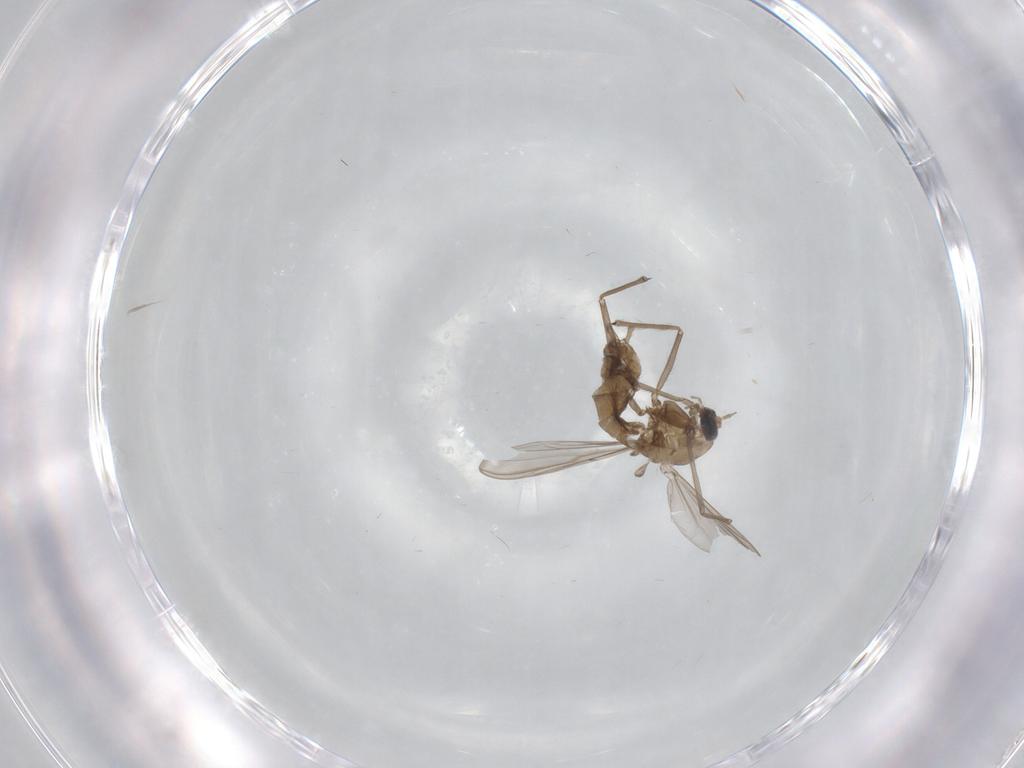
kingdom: Animalia
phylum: Arthropoda
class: Insecta
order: Diptera
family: Chironomidae
